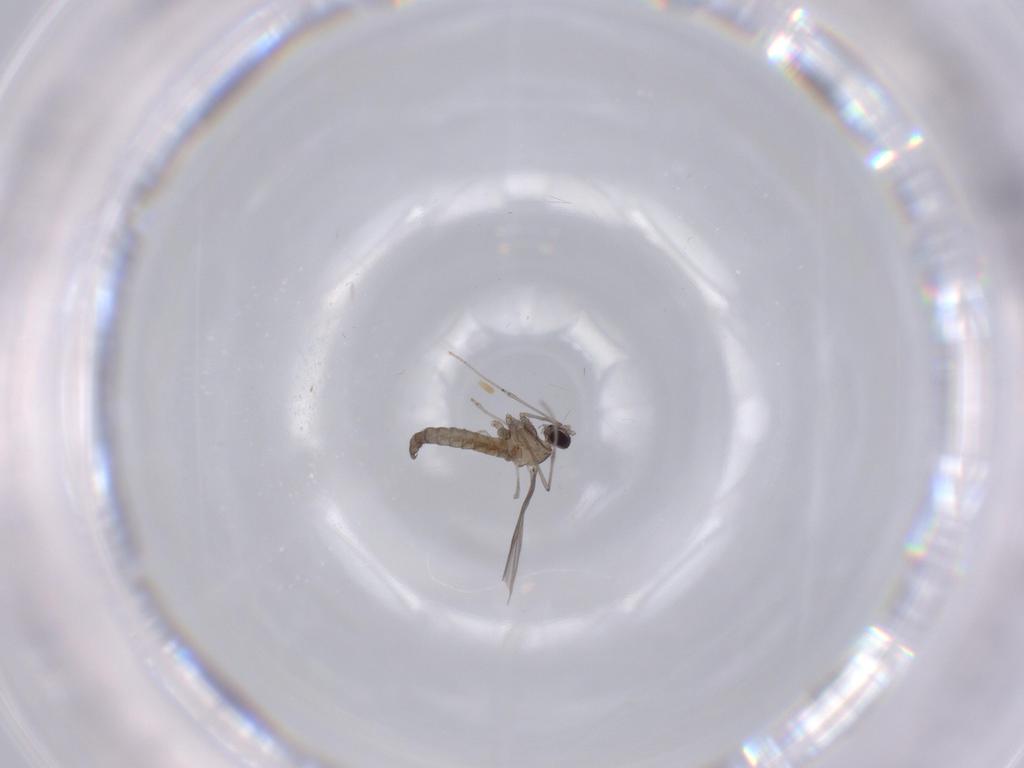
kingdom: Animalia
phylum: Arthropoda
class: Insecta
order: Diptera
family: Cecidomyiidae
